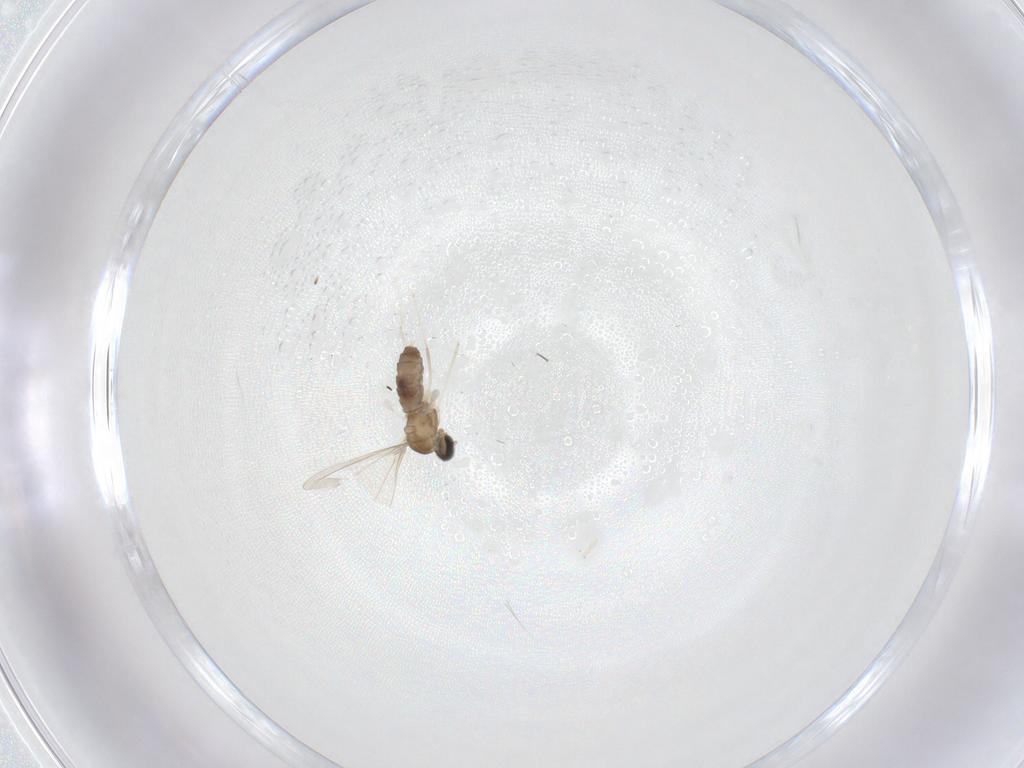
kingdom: Animalia
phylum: Arthropoda
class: Insecta
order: Diptera
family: Cecidomyiidae
